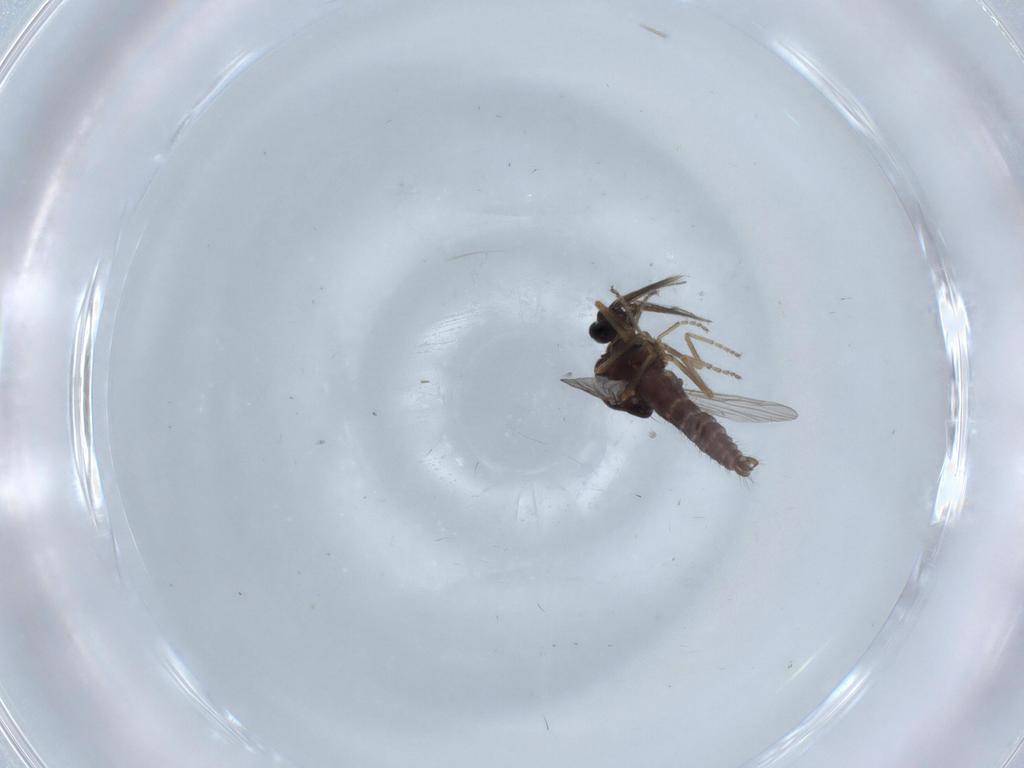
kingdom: Animalia
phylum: Arthropoda
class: Insecta
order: Diptera
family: Ceratopogonidae
